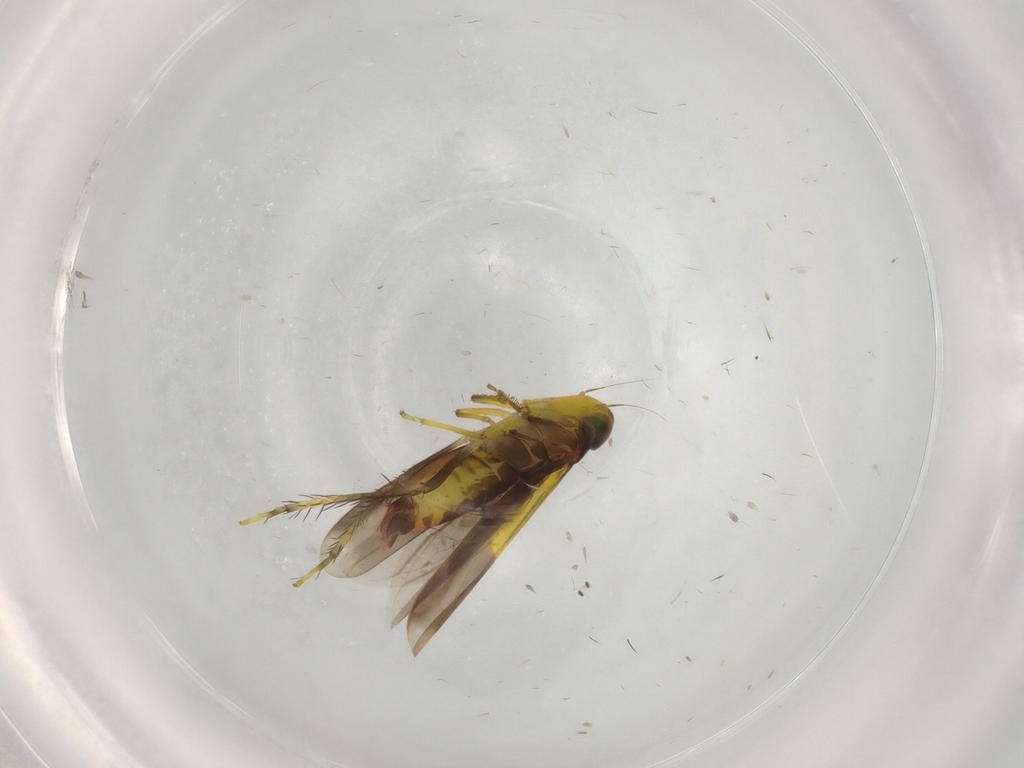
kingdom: Animalia
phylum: Arthropoda
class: Insecta
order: Hemiptera
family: Cicadellidae
